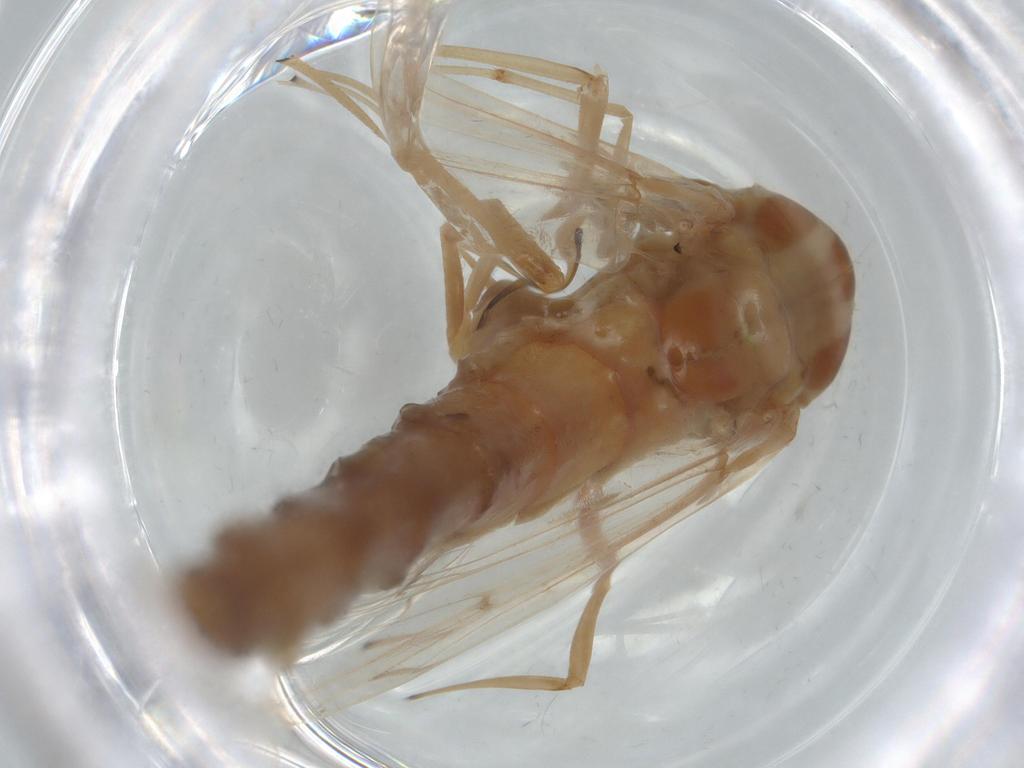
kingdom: Animalia
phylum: Arthropoda
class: Insecta
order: Diptera
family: Chironomidae
